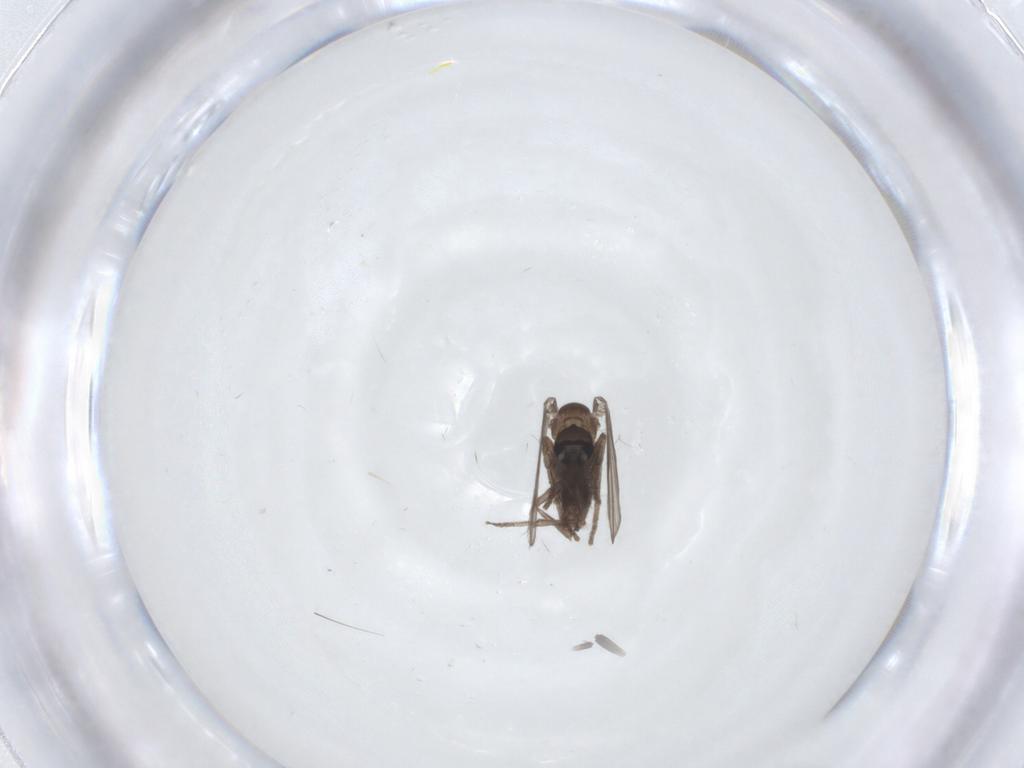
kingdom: Animalia
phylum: Arthropoda
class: Insecta
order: Diptera
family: Psychodidae
